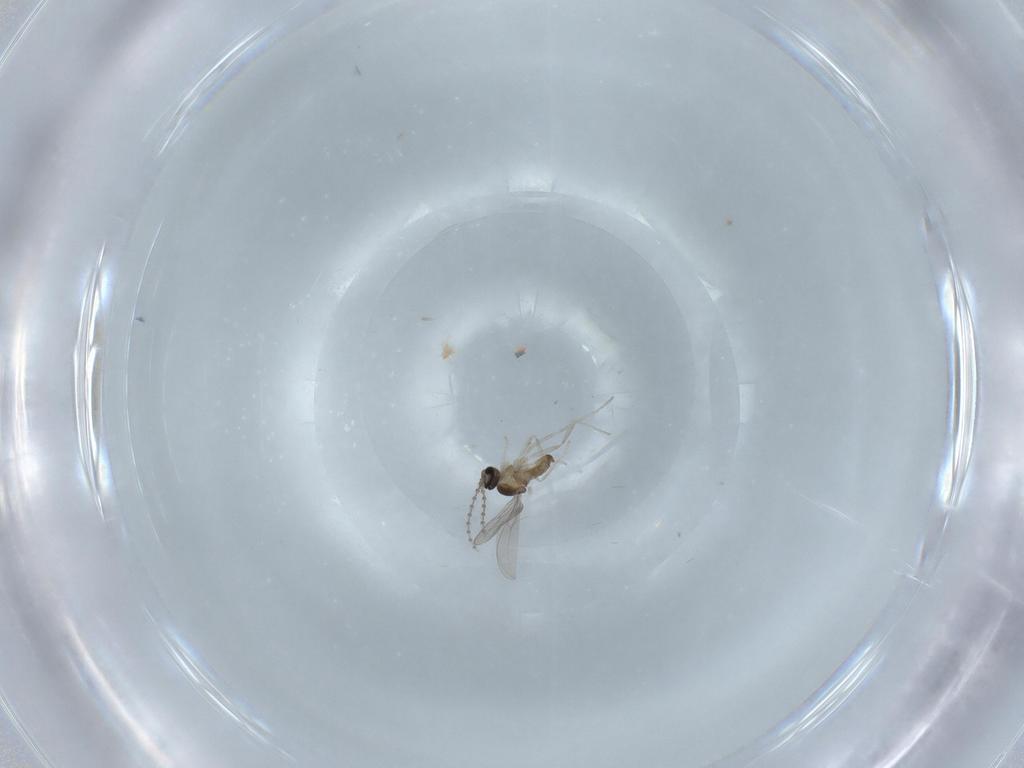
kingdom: Animalia
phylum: Arthropoda
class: Insecta
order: Diptera
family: Cecidomyiidae
